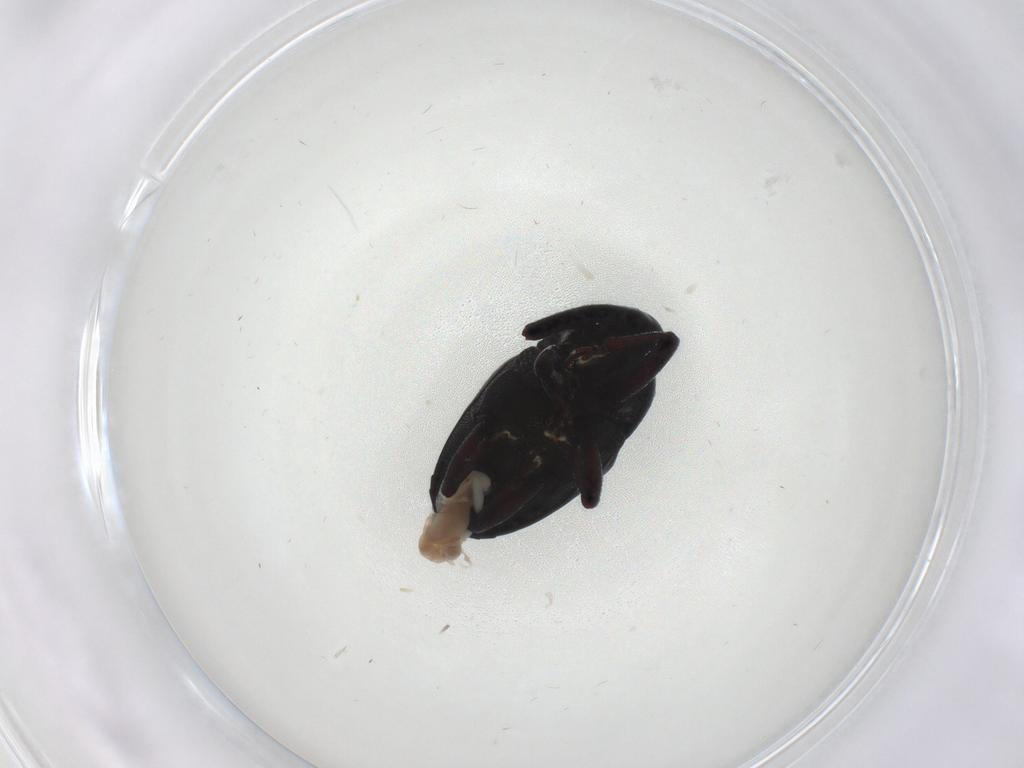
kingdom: Animalia
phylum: Arthropoda
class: Insecta
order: Coleoptera
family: Curculionidae
